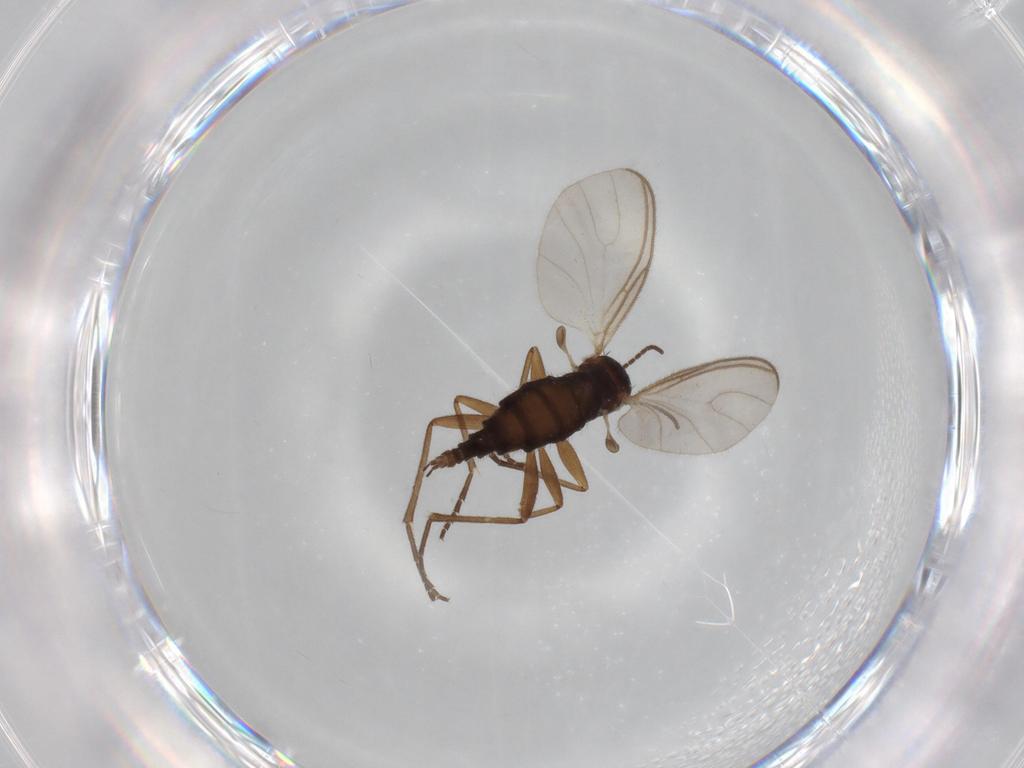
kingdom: Animalia
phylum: Arthropoda
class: Insecta
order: Diptera
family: Sciaridae
